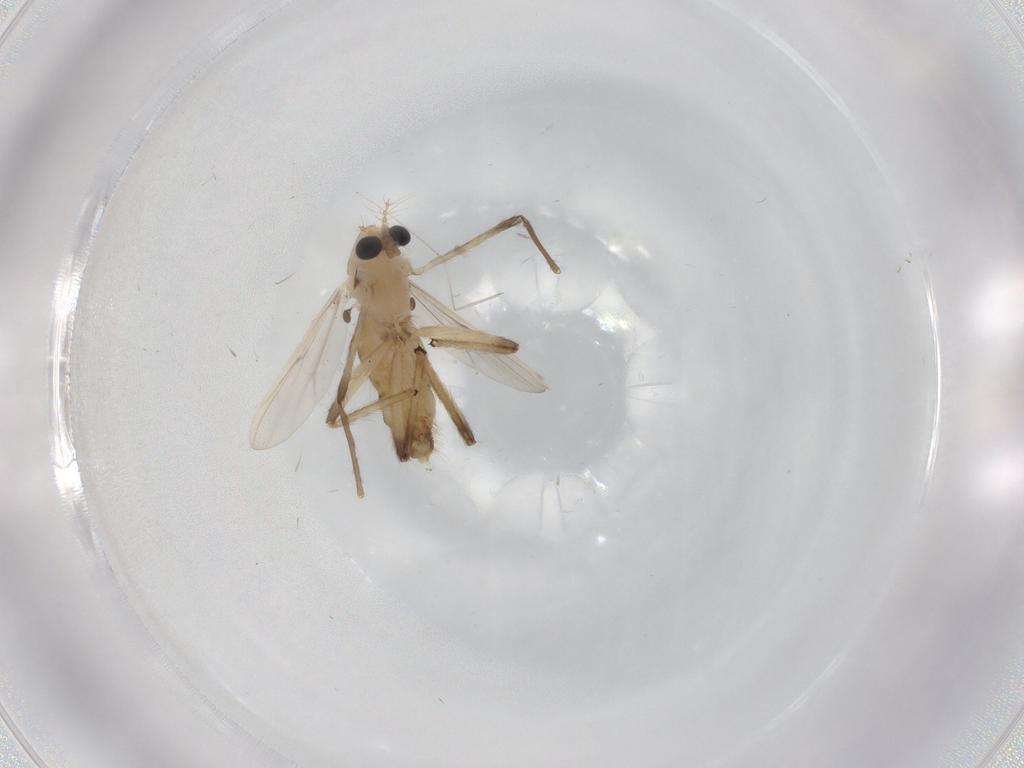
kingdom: Animalia
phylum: Arthropoda
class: Insecta
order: Diptera
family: Chironomidae
